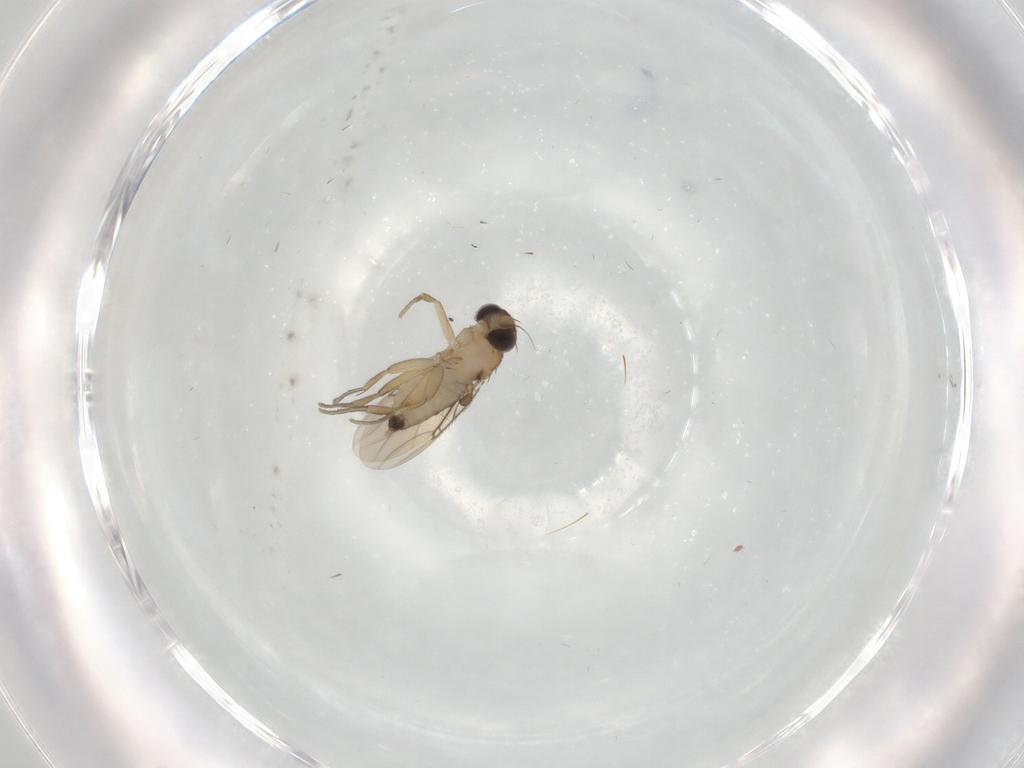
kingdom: Animalia
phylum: Arthropoda
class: Insecta
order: Diptera
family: Phoridae
